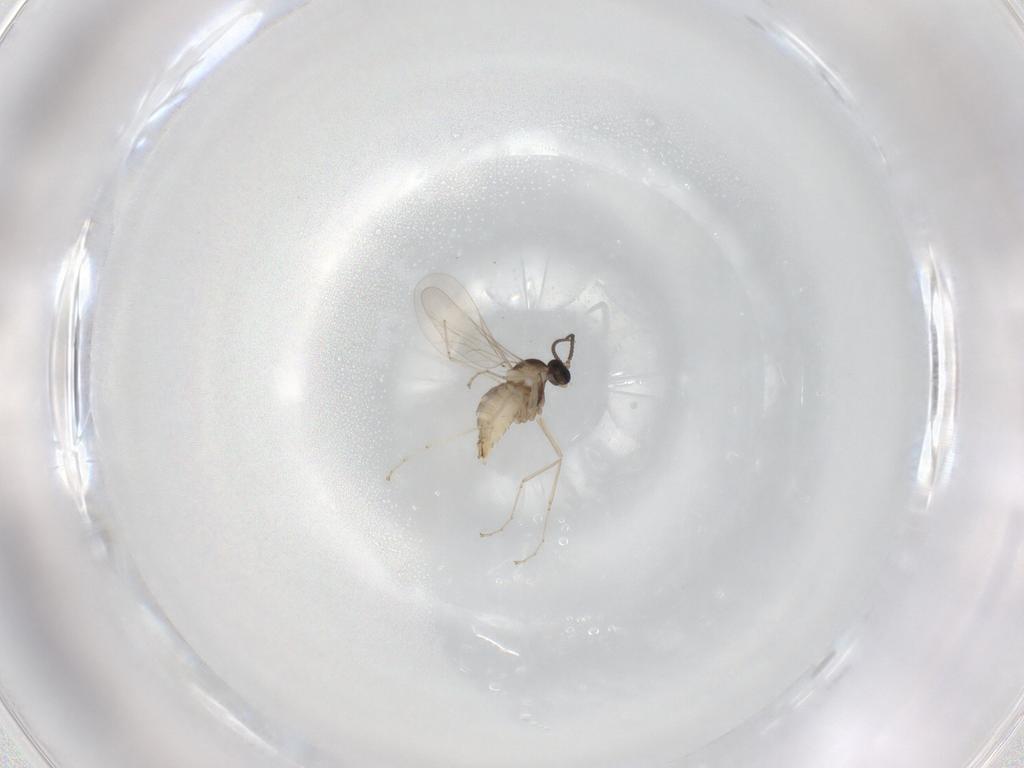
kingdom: Animalia
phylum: Arthropoda
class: Insecta
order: Diptera
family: Cecidomyiidae
